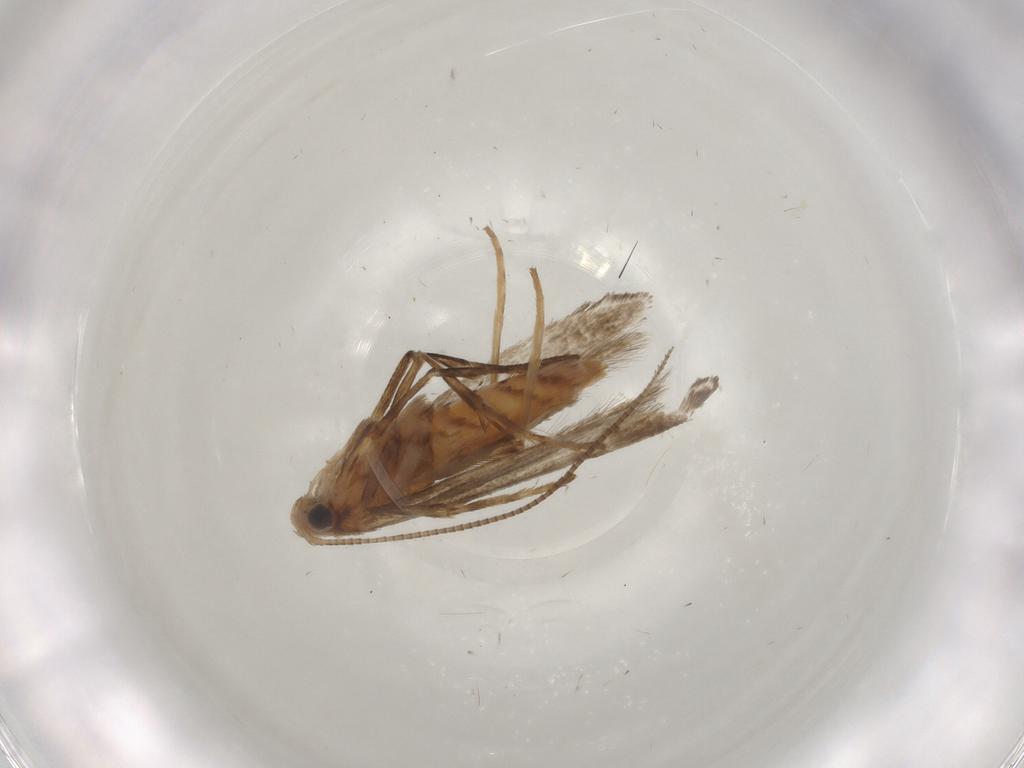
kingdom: Animalia
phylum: Arthropoda
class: Insecta
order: Lepidoptera
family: Gracillariidae
